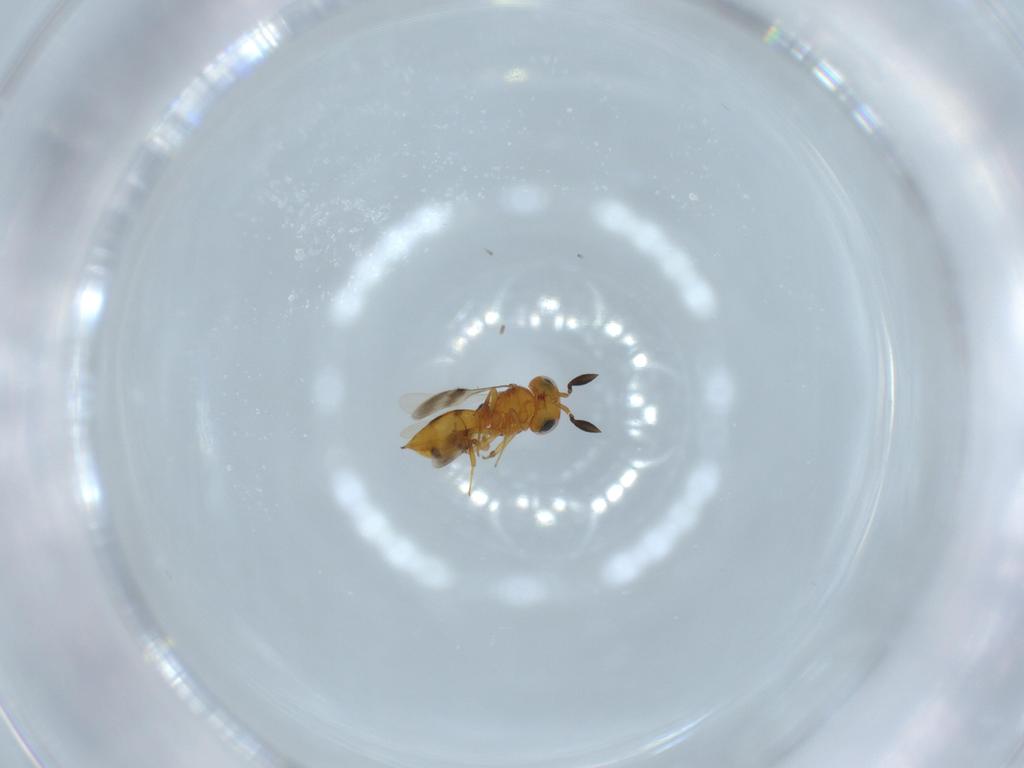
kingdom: Animalia
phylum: Arthropoda
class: Insecta
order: Hymenoptera
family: Scelionidae
